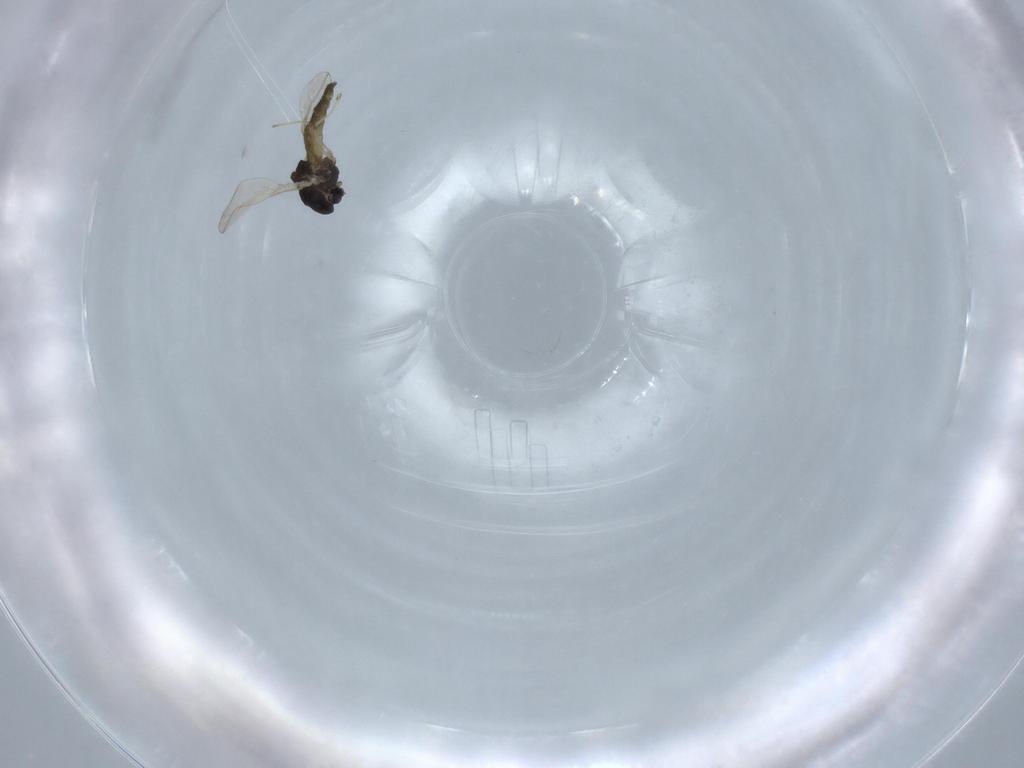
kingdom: Animalia
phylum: Arthropoda
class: Insecta
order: Diptera
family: Chironomidae
